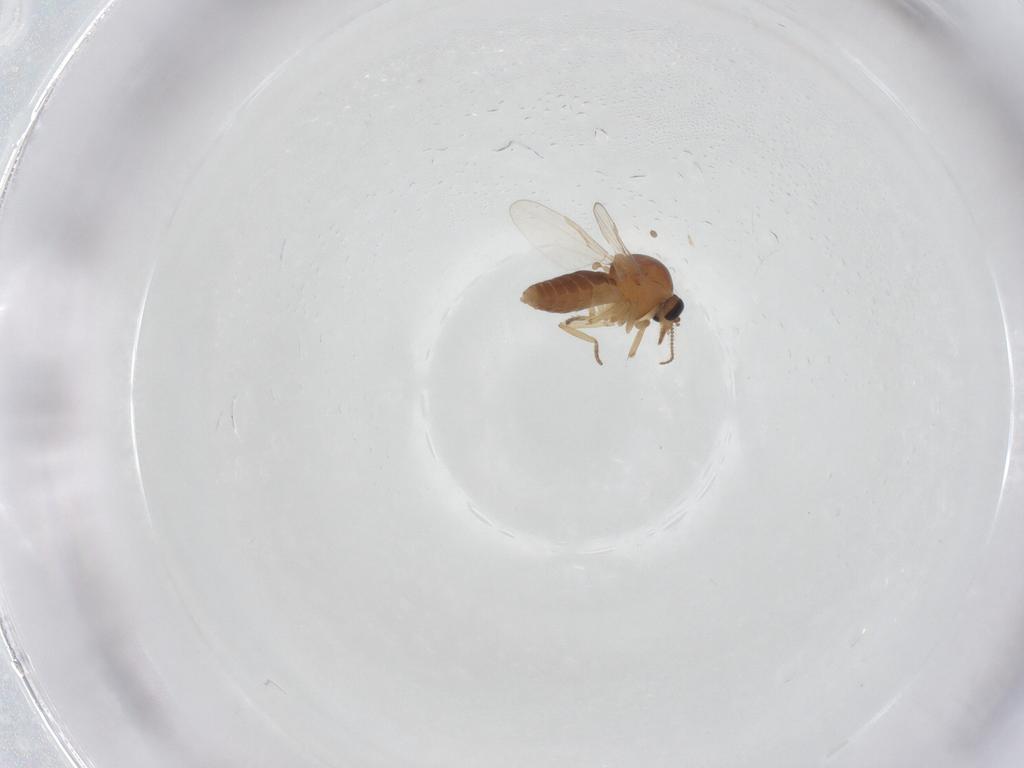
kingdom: Animalia
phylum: Arthropoda
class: Insecta
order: Diptera
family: Ceratopogonidae
